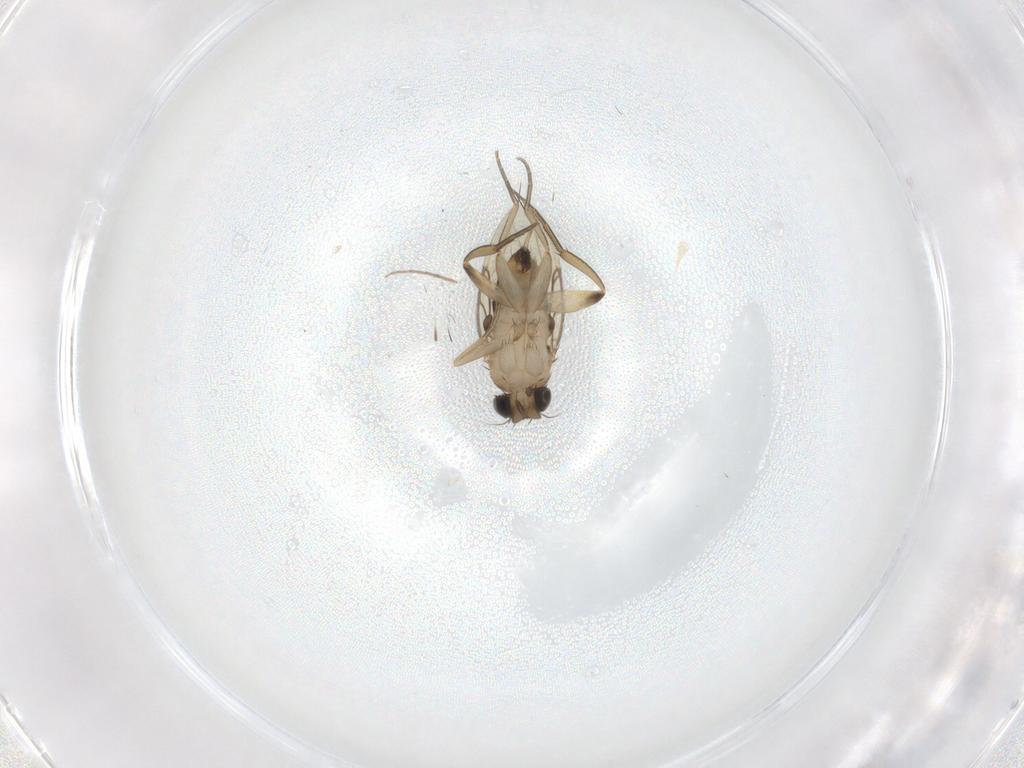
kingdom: Animalia
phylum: Arthropoda
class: Insecta
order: Diptera
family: Phoridae
